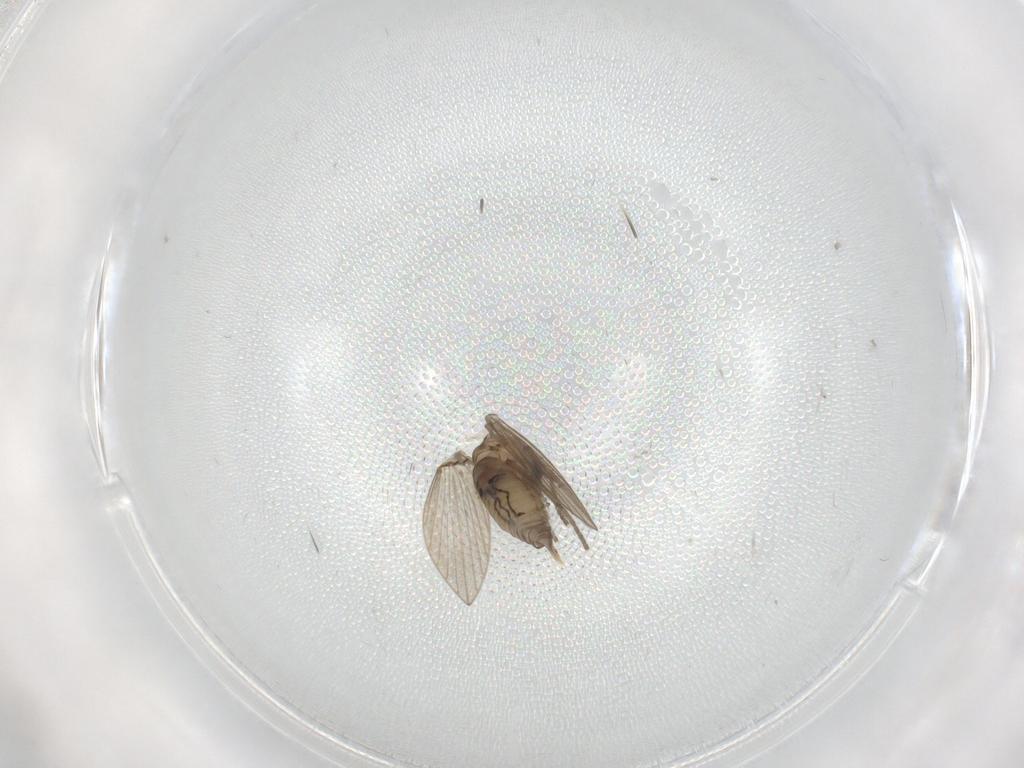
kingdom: Animalia
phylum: Arthropoda
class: Insecta
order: Diptera
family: Psychodidae
